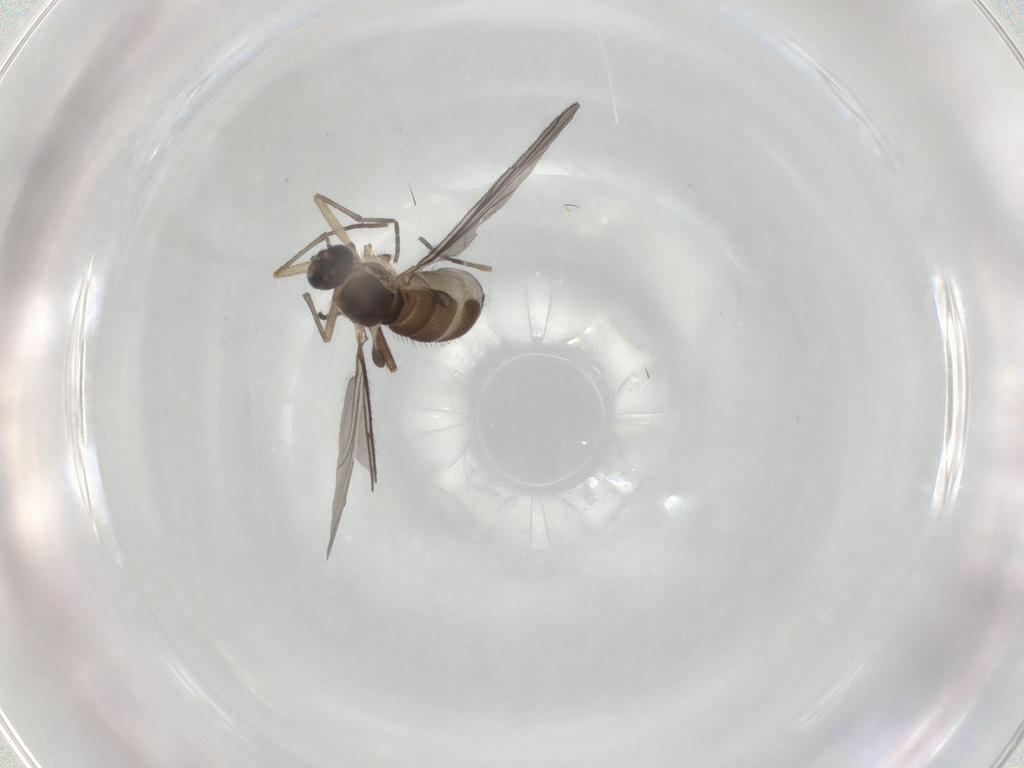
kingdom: Animalia
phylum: Arthropoda
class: Insecta
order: Diptera
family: Sciaridae
